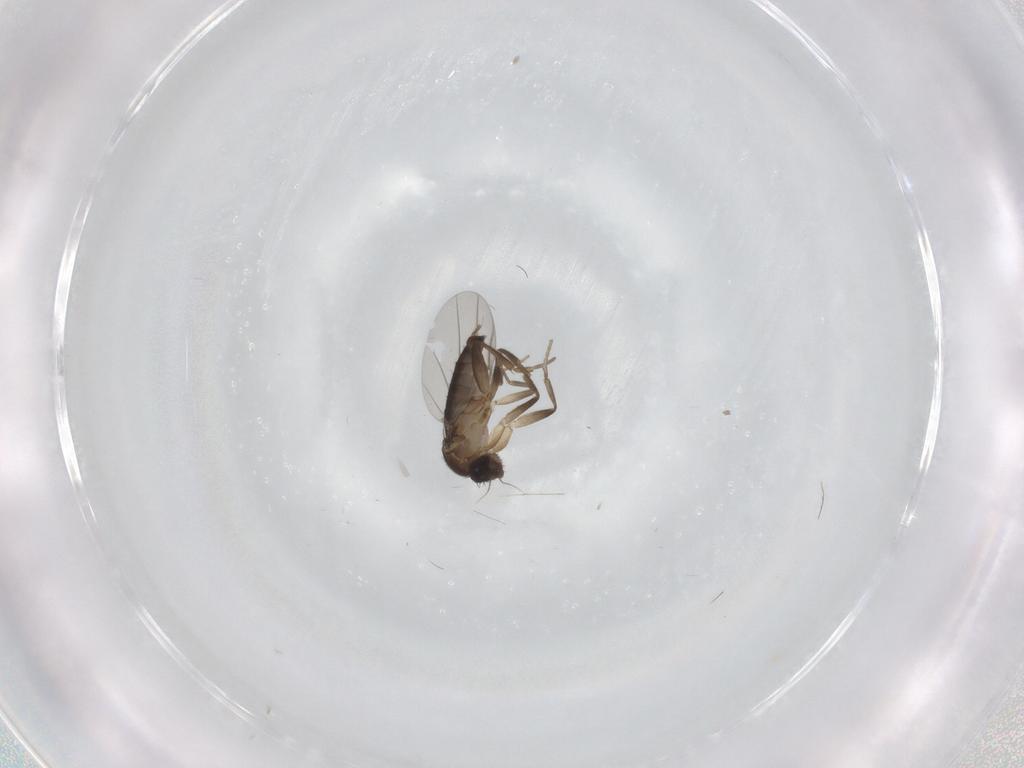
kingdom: Animalia
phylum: Arthropoda
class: Insecta
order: Diptera
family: Cecidomyiidae
